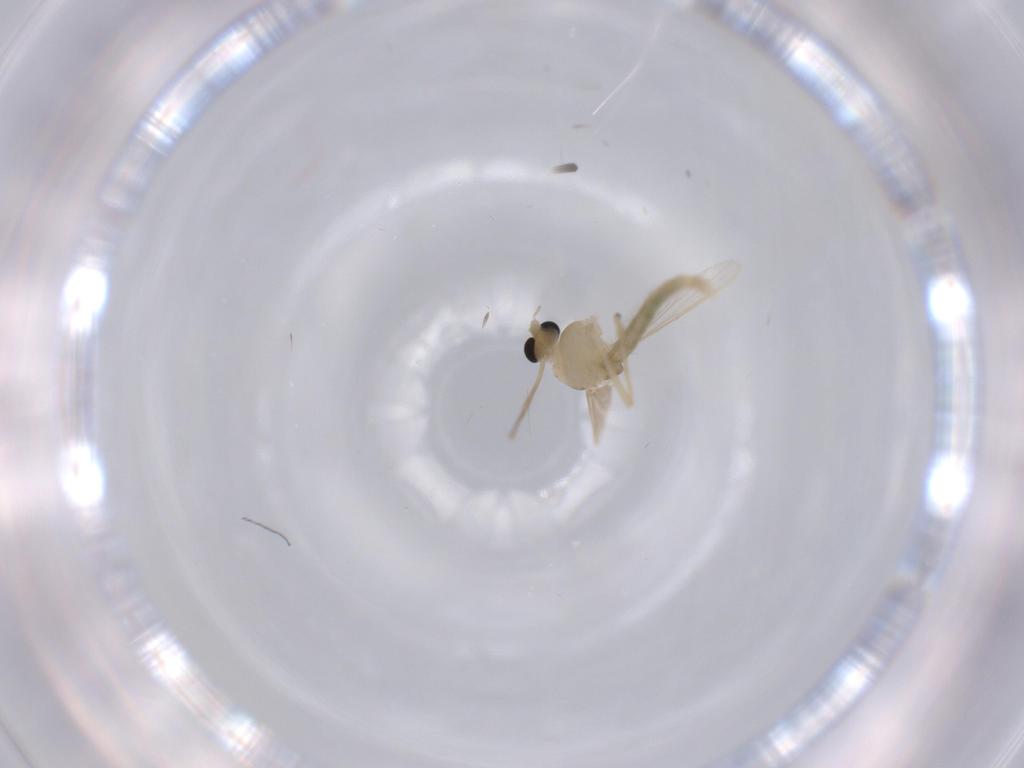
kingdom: Animalia
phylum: Arthropoda
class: Insecta
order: Diptera
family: Chironomidae
